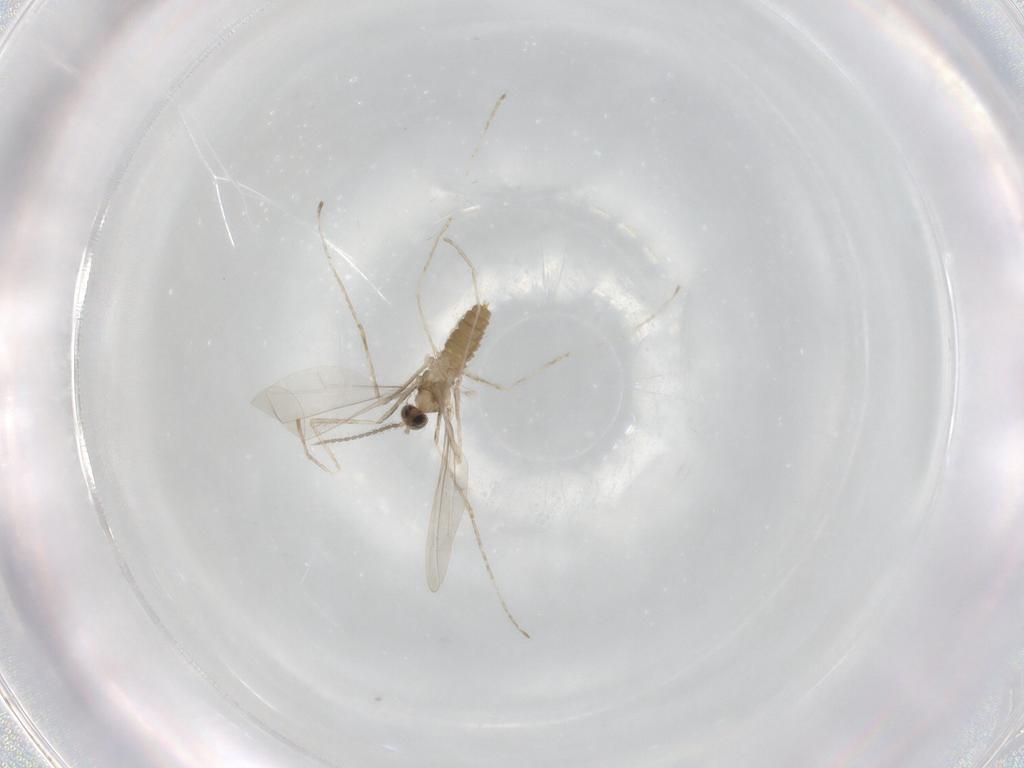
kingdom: Animalia
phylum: Arthropoda
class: Insecta
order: Diptera
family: Cecidomyiidae
